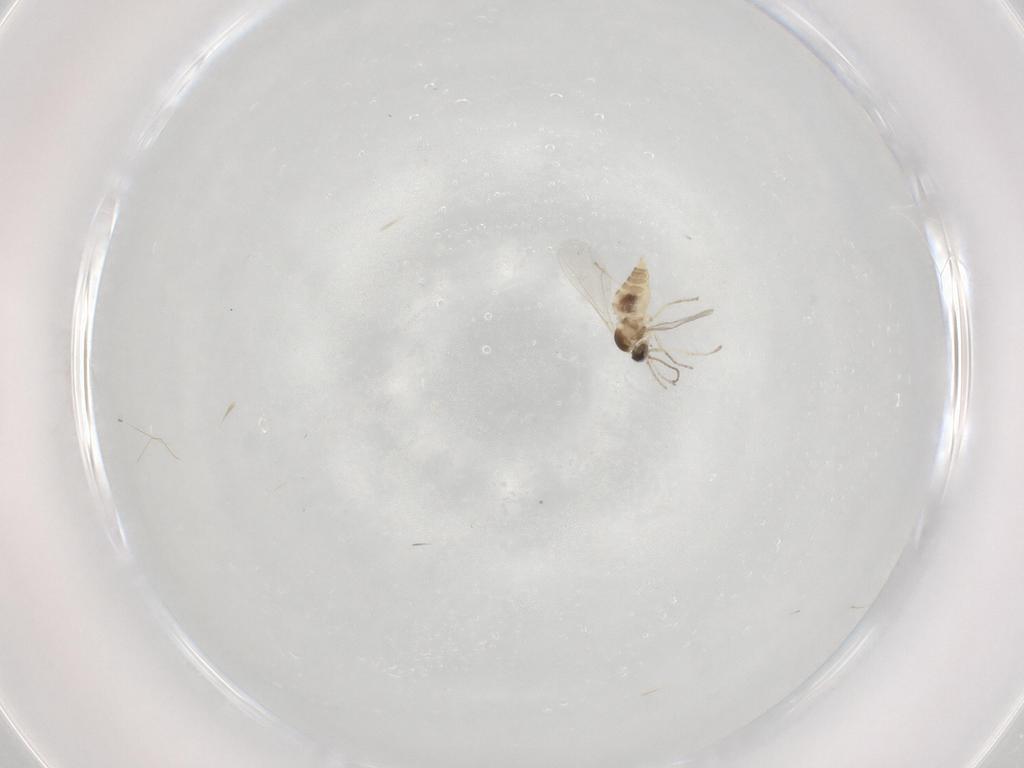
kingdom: Animalia
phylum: Arthropoda
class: Insecta
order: Diptera
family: Cecidomyiidae
